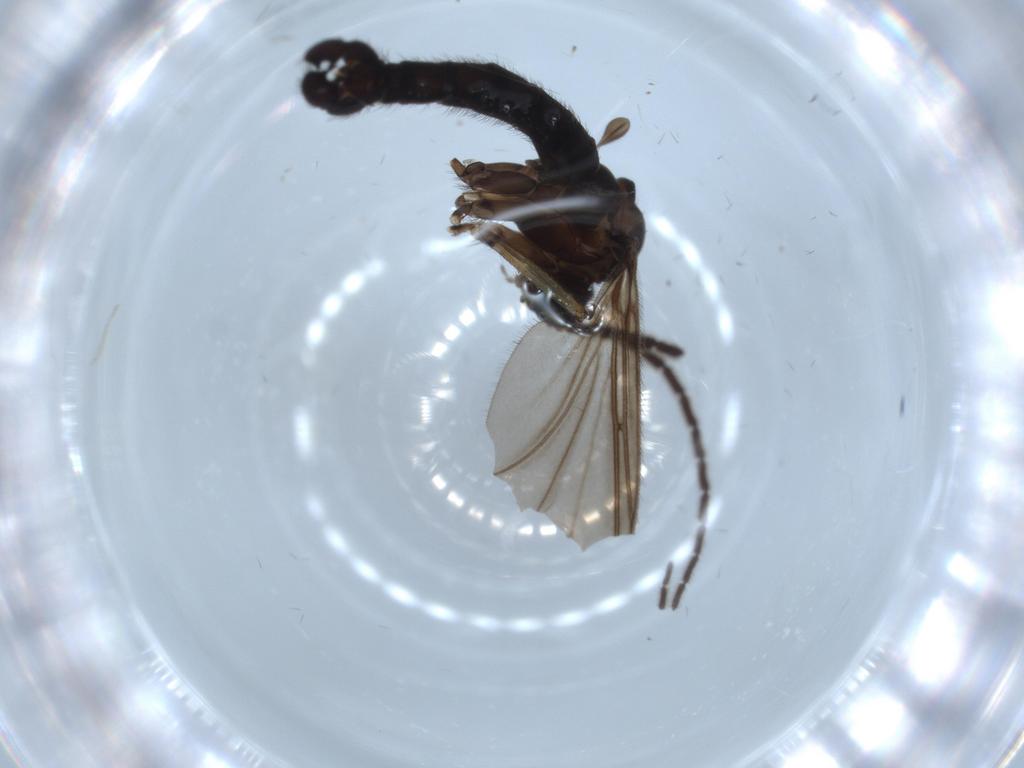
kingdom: Animalia
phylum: Arthropoda
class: Insecta
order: Diptera
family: Sciaridae
